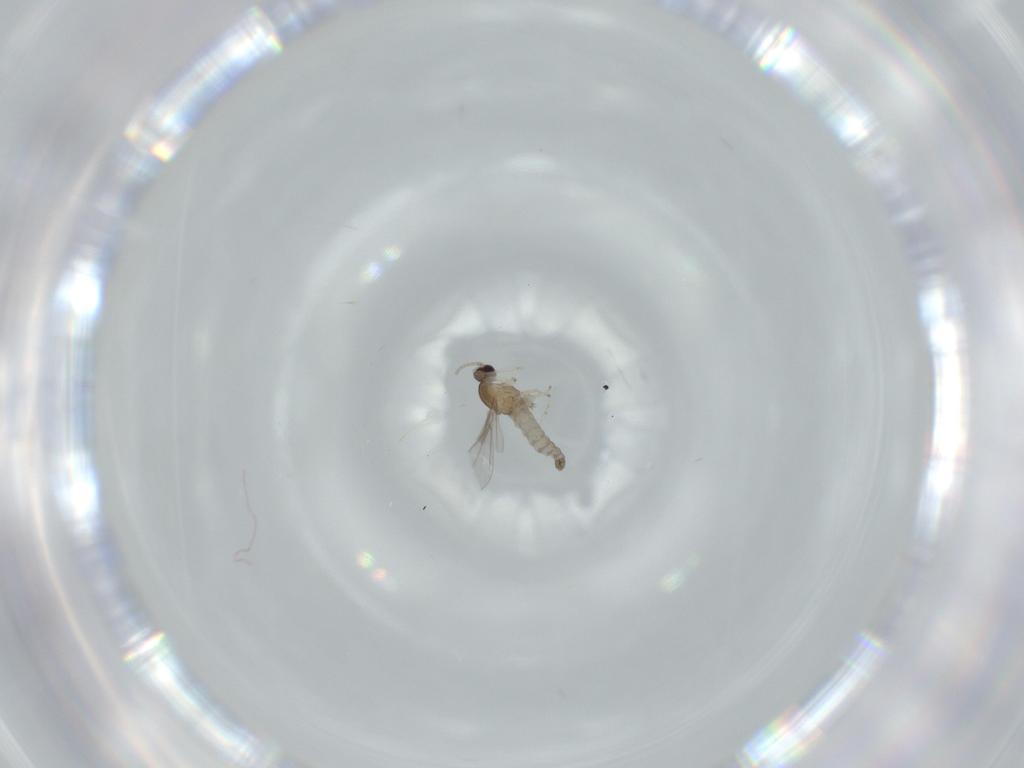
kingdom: Animalia
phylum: Arthropoda
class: Insecta
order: Diptera
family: Cecidomyiidae
